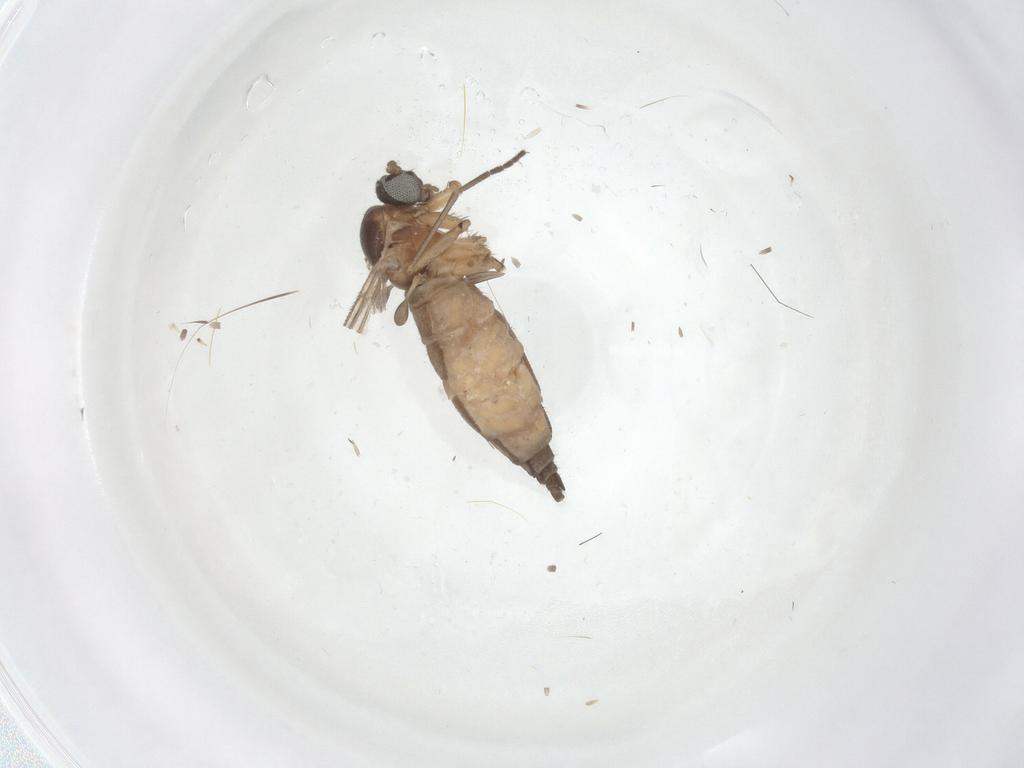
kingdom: Animalia
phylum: Arthropoda
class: Insecta
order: Diptera
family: Sciaridae
